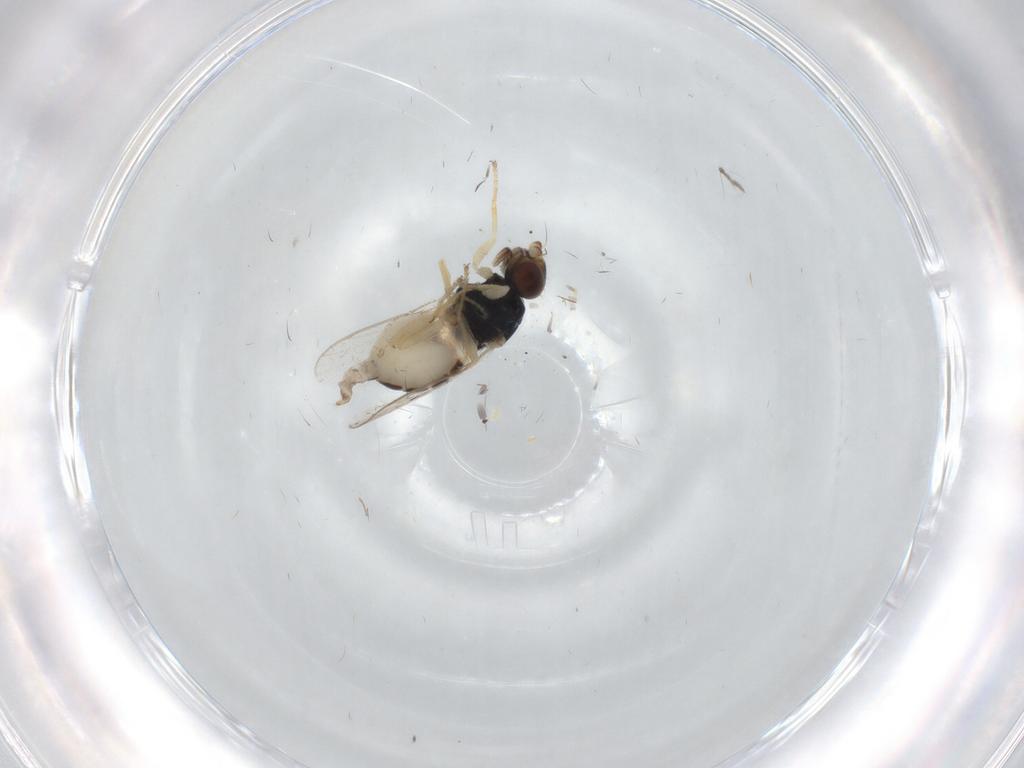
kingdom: Animalia
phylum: Arthropoda
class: Insecta
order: Diptera
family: Chloropidae
